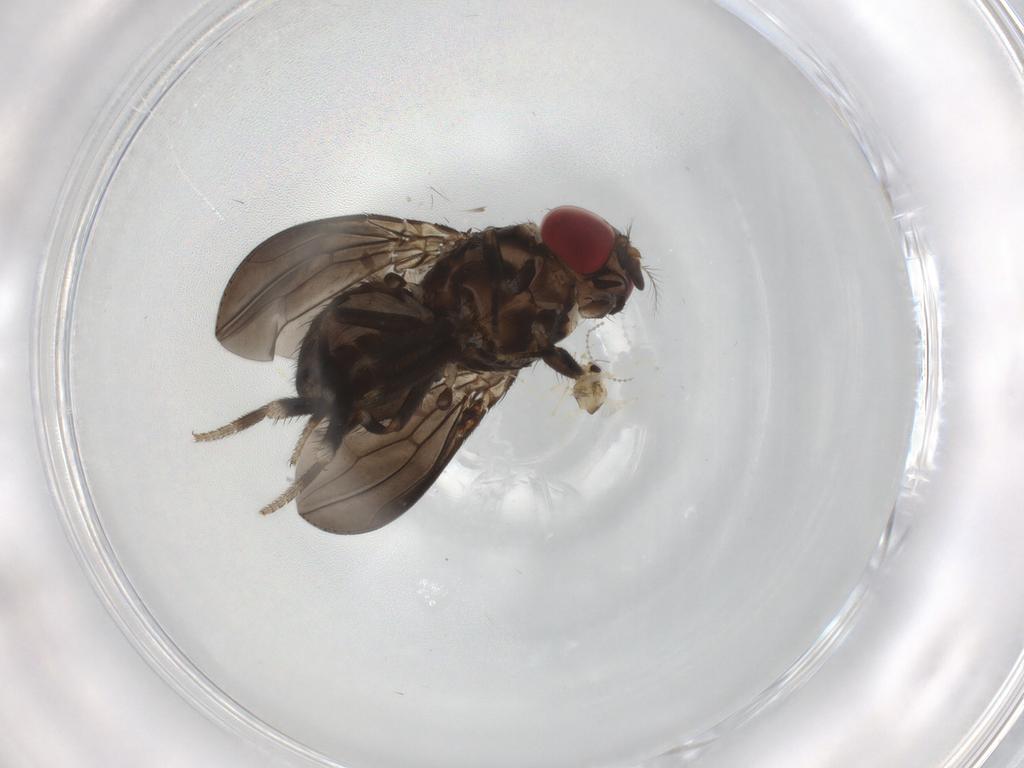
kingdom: Animalia
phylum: Arthropoda
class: Insecta
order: Diptera
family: Drosophilidae
